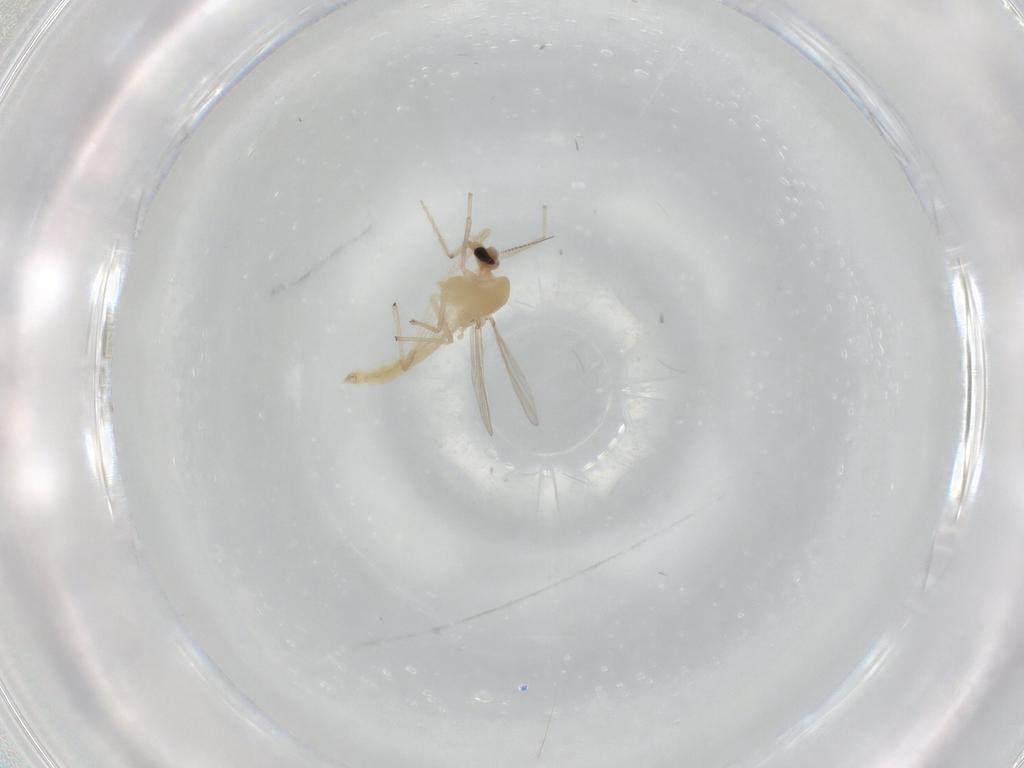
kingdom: Animalia
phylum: Arthropoda
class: Insecta
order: Diptera
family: Chironomidae
